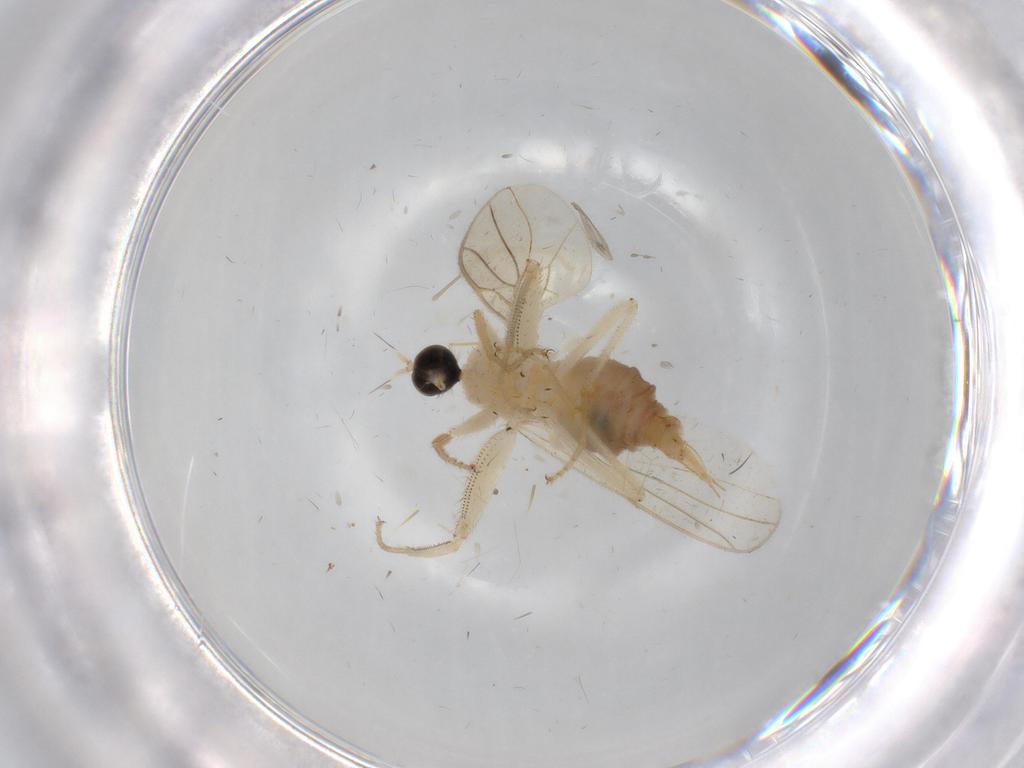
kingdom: Animalia
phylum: Arthropoda
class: Insecta
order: Diptera
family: Hybotidae
